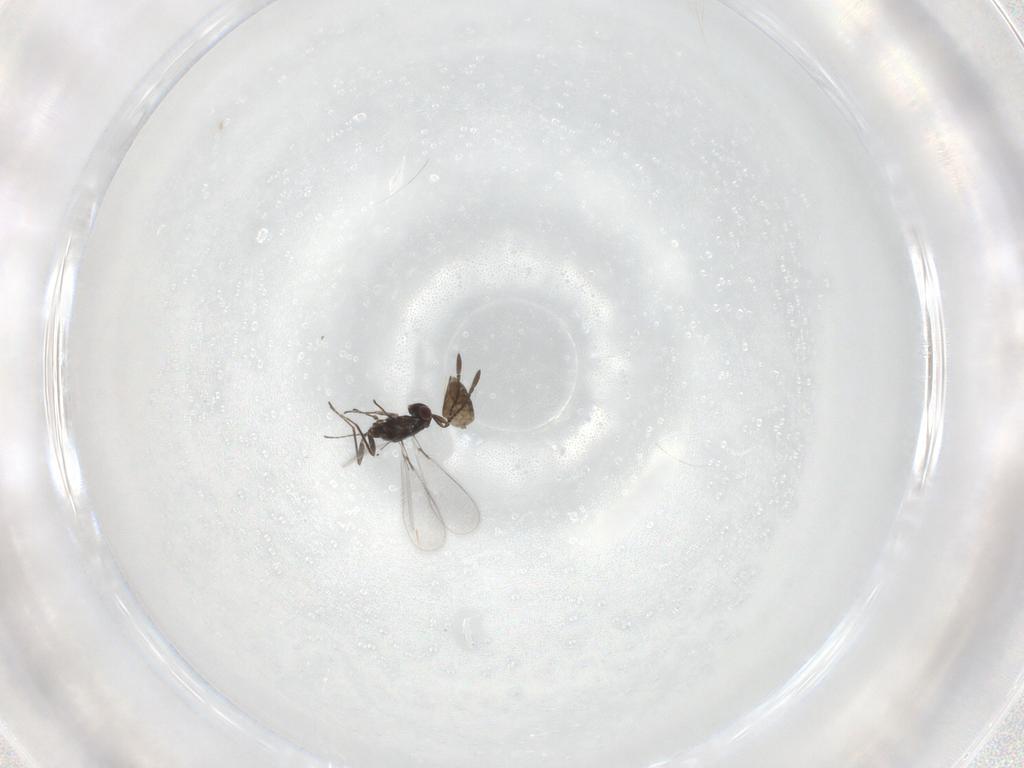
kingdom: Animalia
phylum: Arthropoda
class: Insecta
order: Hymenoptera
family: Mymaridae
